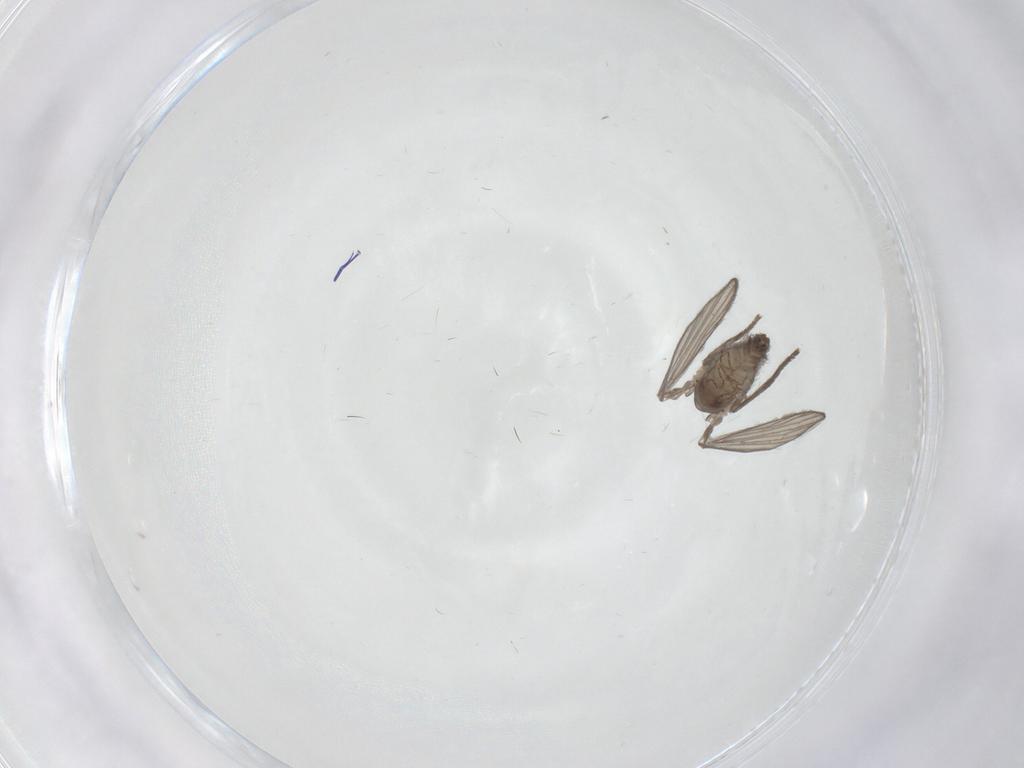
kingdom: Animalia
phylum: Arthropoda
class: Insecta
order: Diptera
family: Psychodidae
